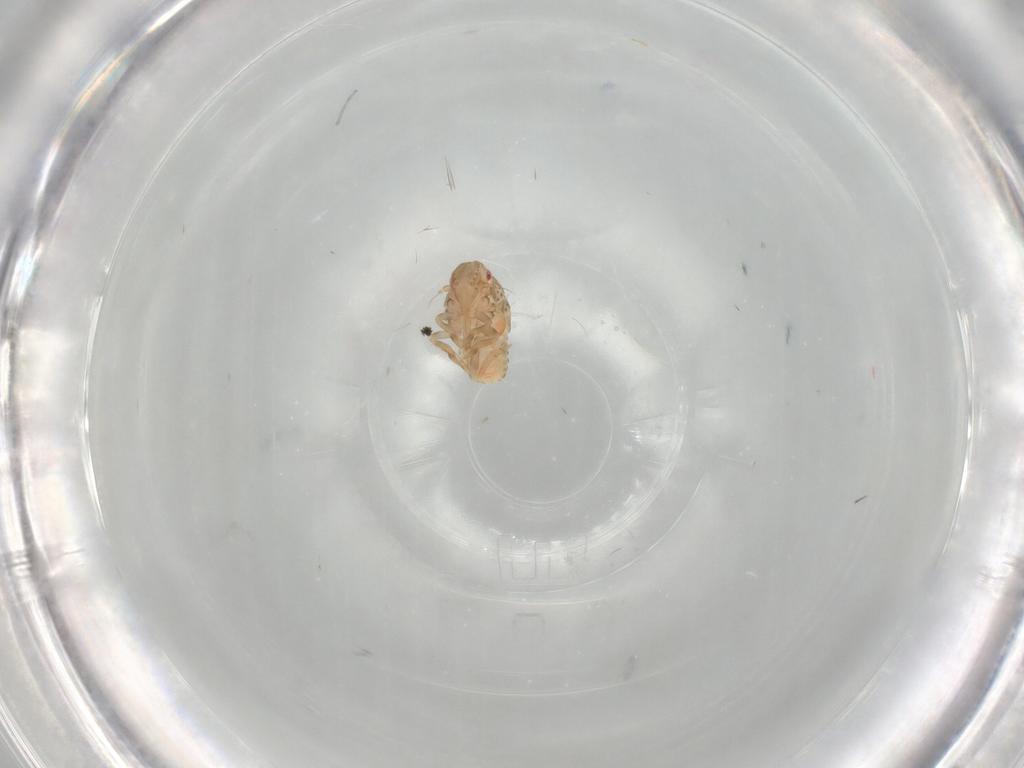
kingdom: Animalia
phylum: Arthropoda
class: Insecta
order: Hemiptera
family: Flatidae
